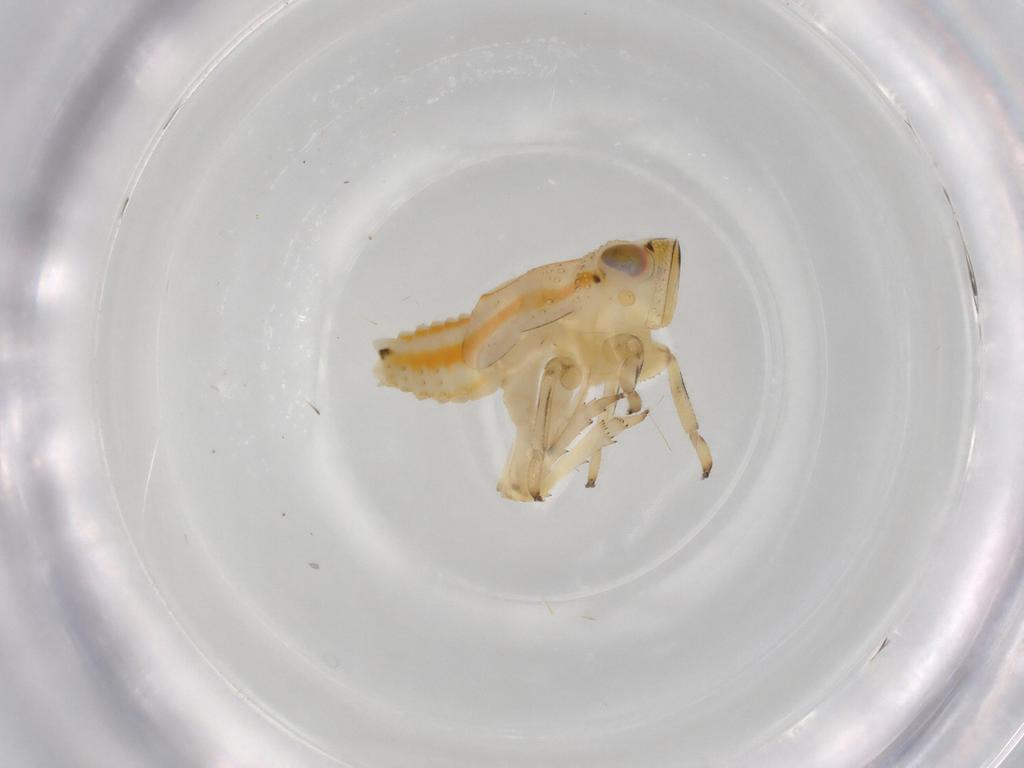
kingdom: Animalia
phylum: Arthropoda
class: Insecta
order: Hemiptera
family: Issidae
